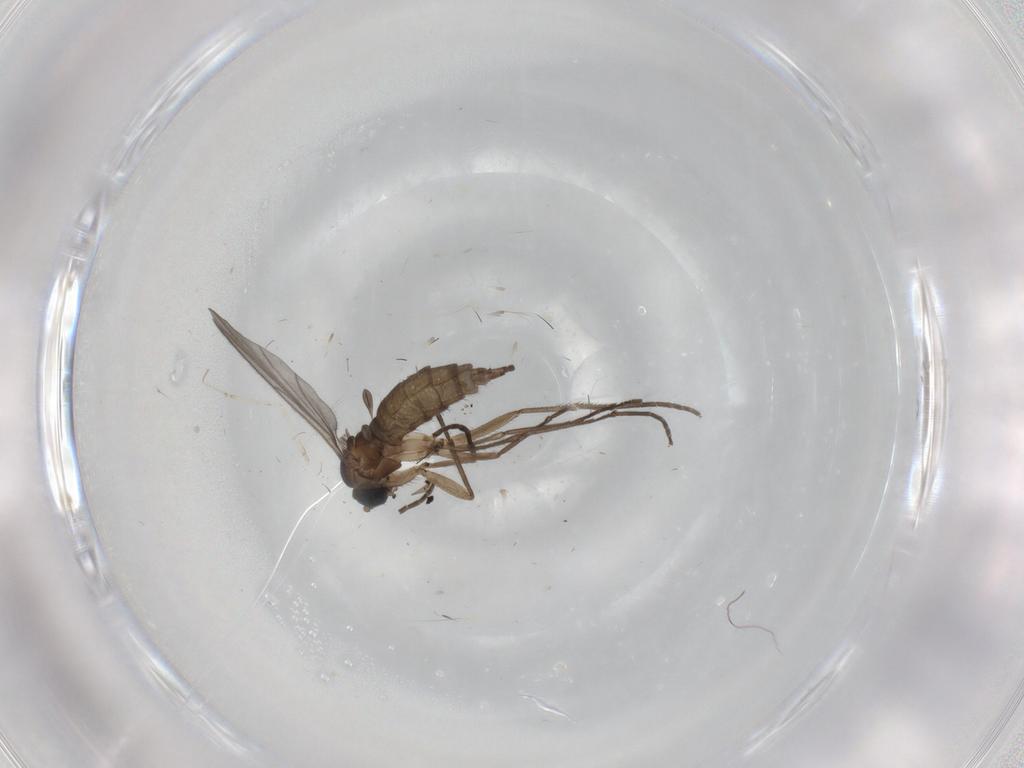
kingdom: Animalia
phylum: Arthropoda
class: Insecta
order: Diptera
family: Sciaridae
